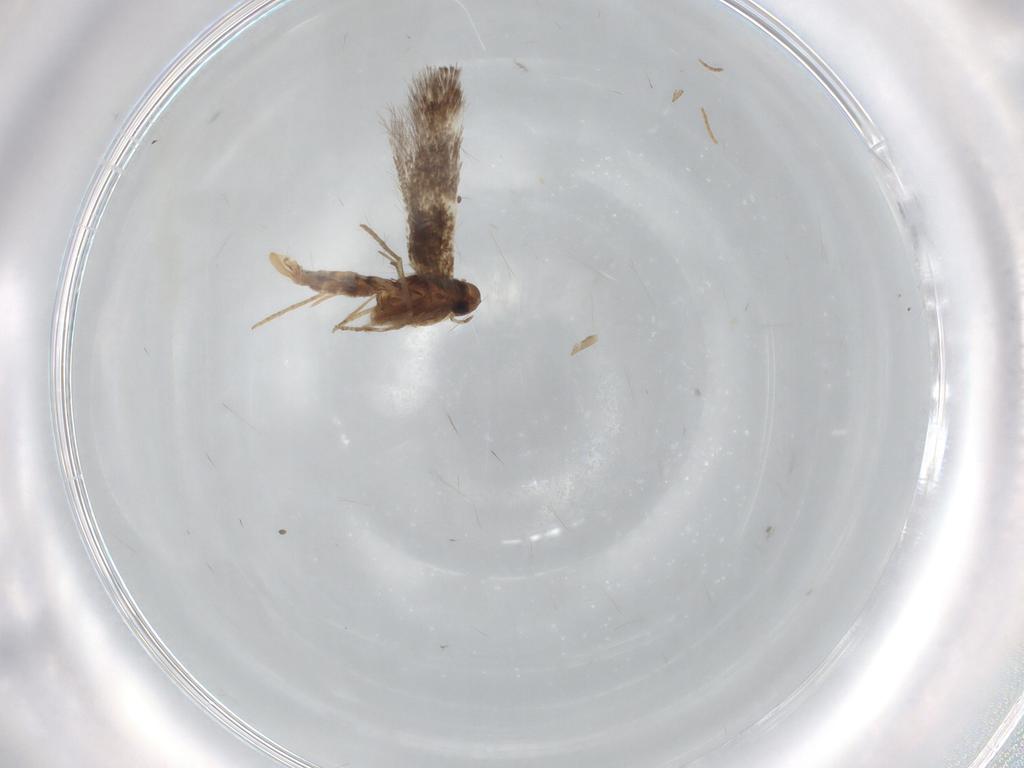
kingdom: Animalia
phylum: Arthropoda
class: Insecta
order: Lepidoptera
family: Elachistidae
